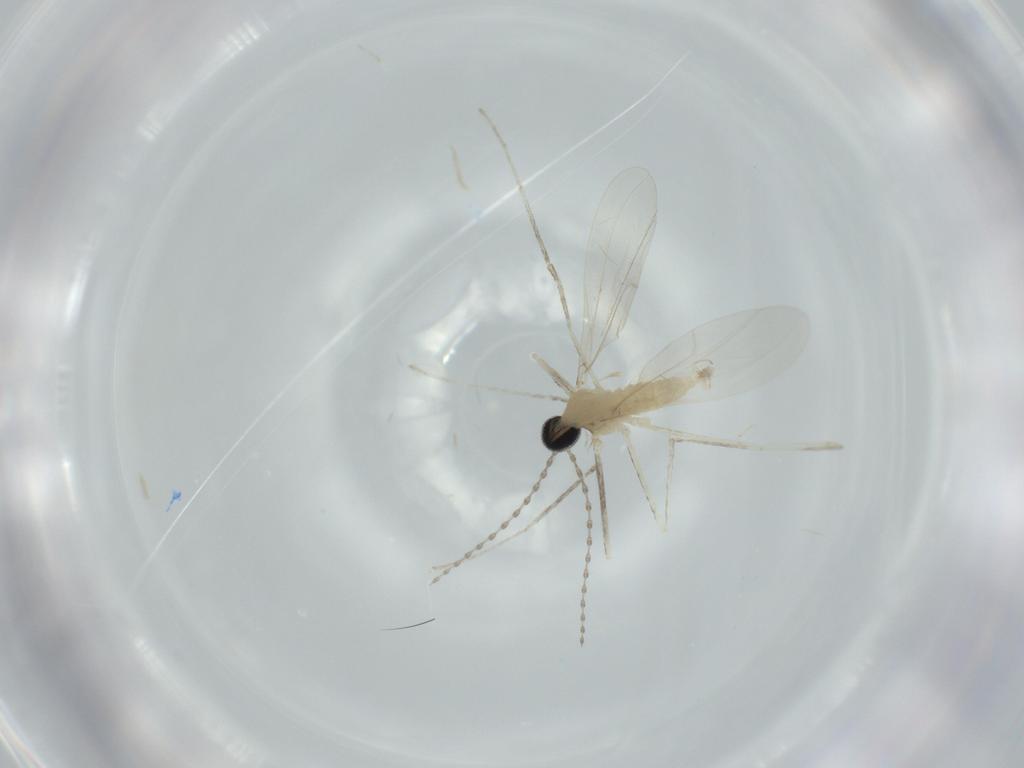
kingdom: Animalia
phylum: Arthropoda
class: Insecta
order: Diptera
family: Cecidomyiidae
